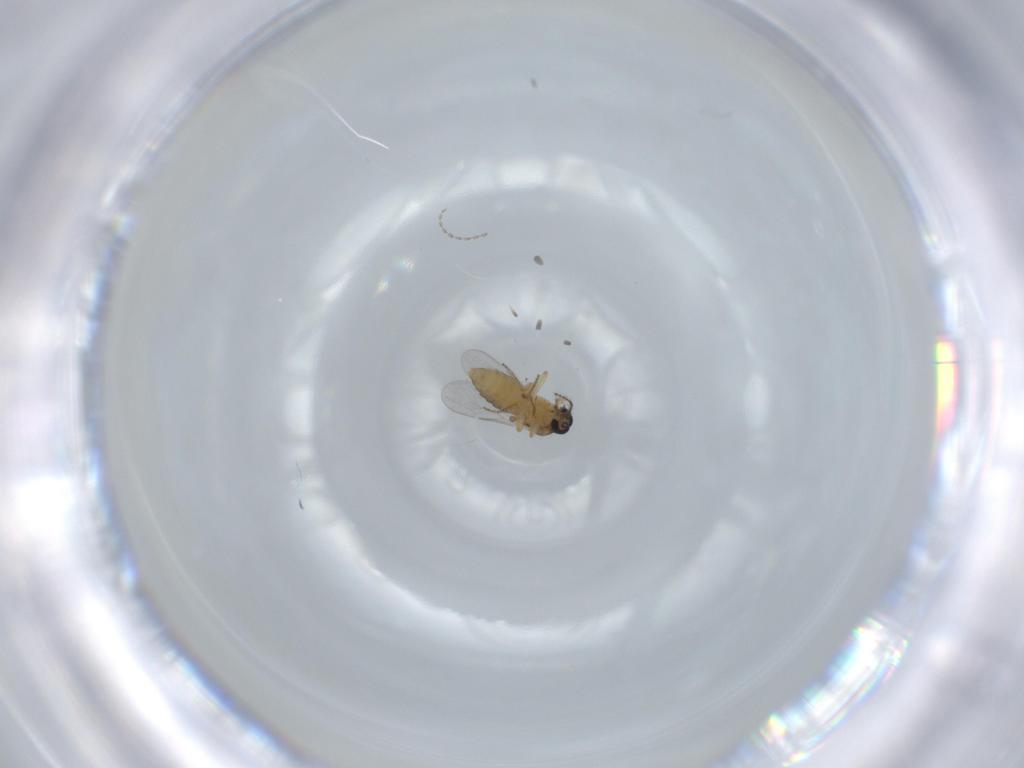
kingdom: Animalia
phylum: Arthropoda
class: Insecta
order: Diptera
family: Ceratopogonidae
